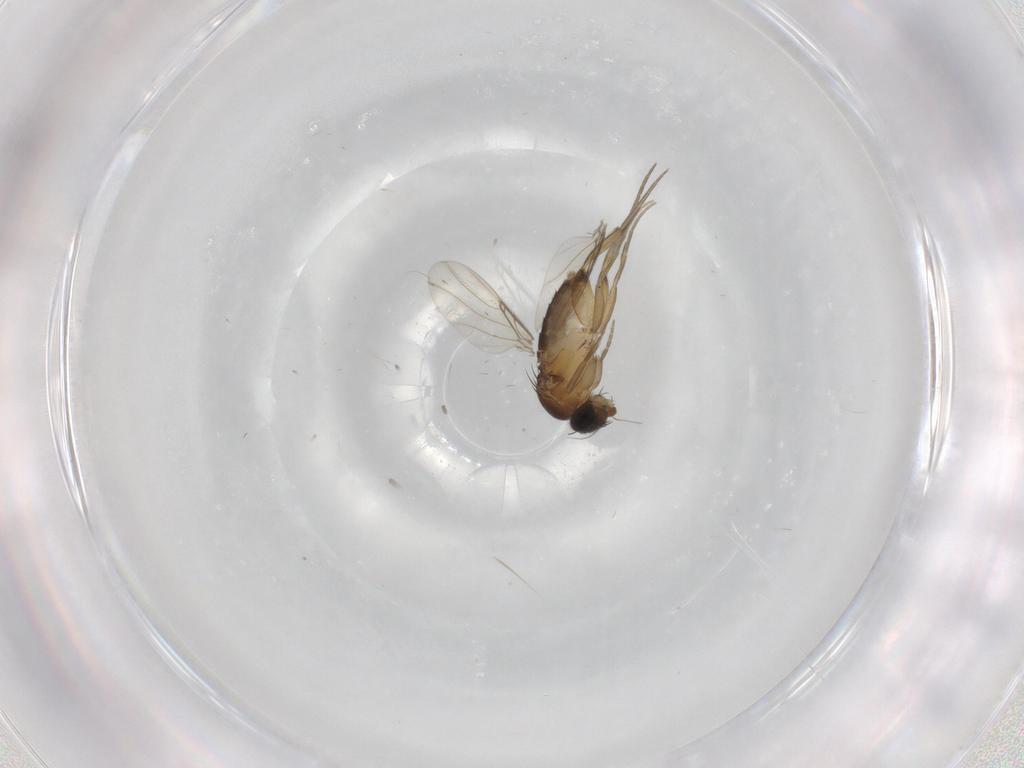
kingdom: Animalia
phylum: Arthropoda
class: Insecta
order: Diptera
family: Phoridae
